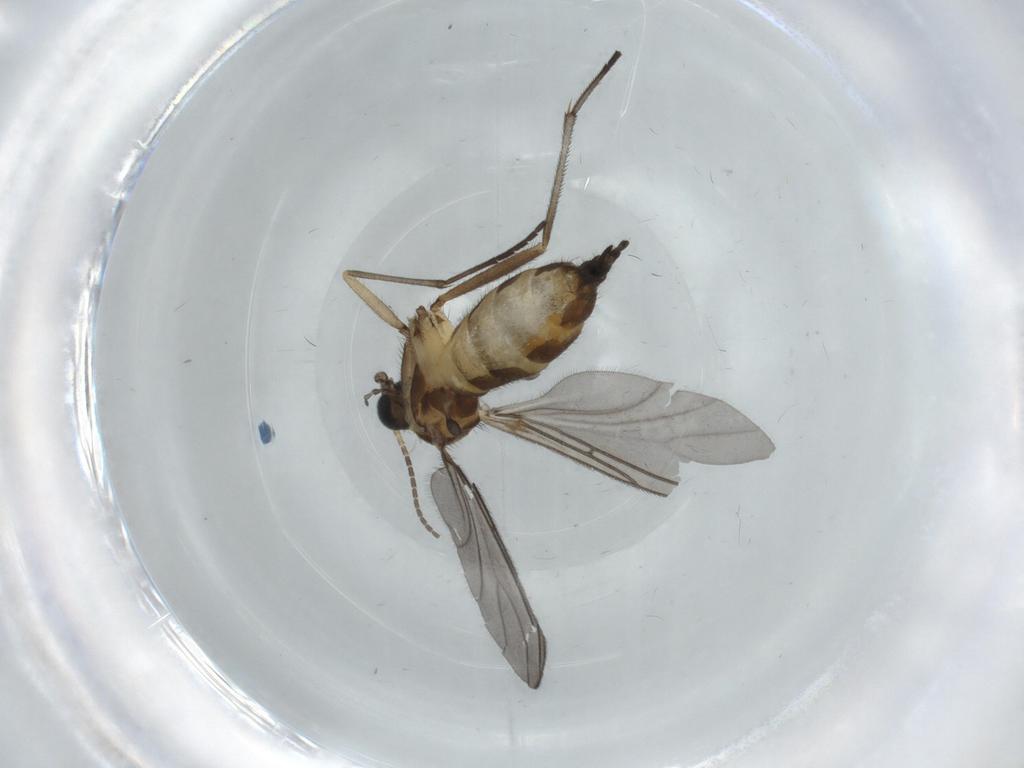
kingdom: Animalia
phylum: Arthropoda
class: Insecta
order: Diptera
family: Sciaridae
